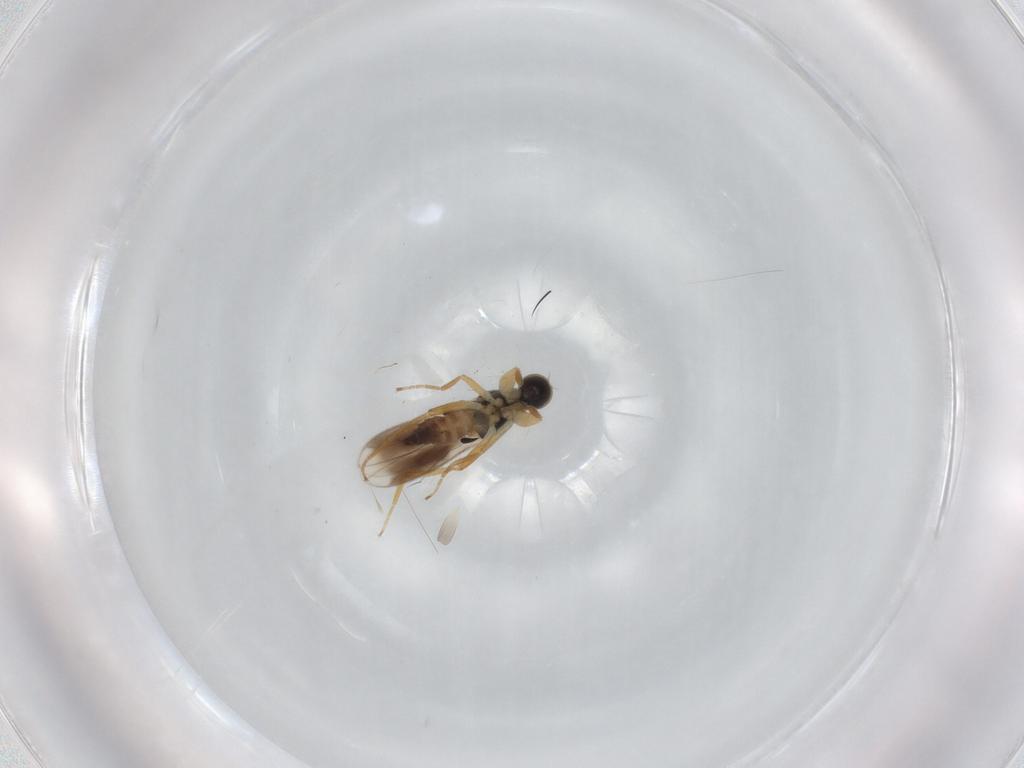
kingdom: Animalia
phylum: Arthropoda
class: Insecta
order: Diptera
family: Hybotidae
